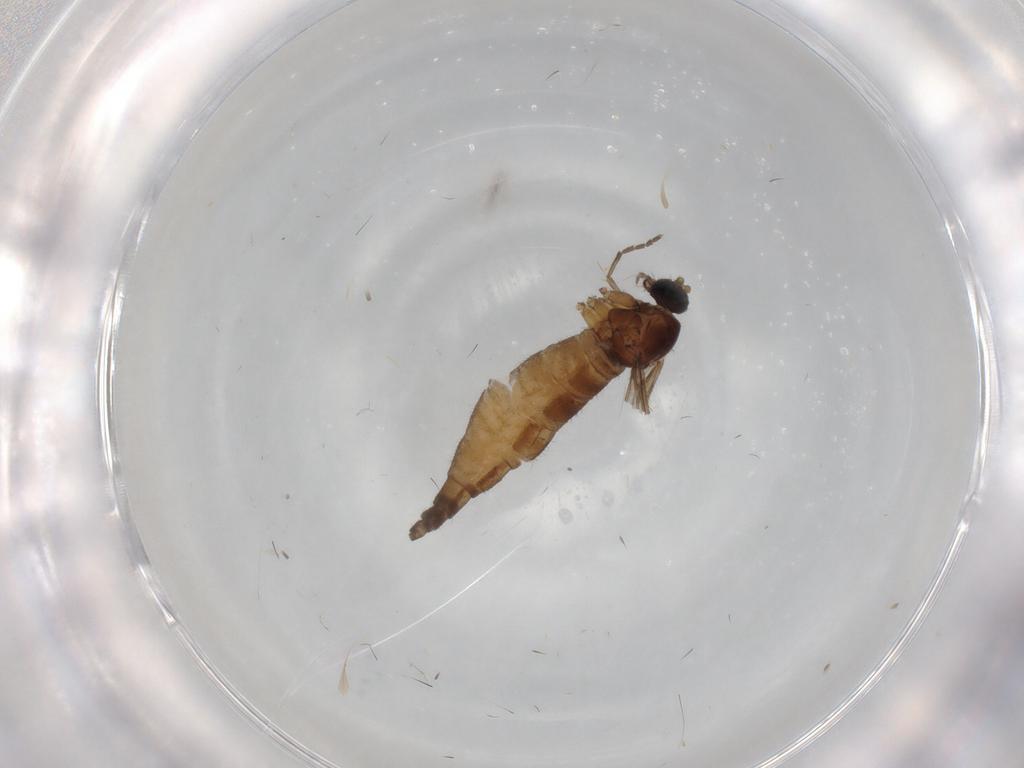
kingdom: Animalia
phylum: Arthropoda
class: Insecta
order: Diptera
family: Sciaridae
